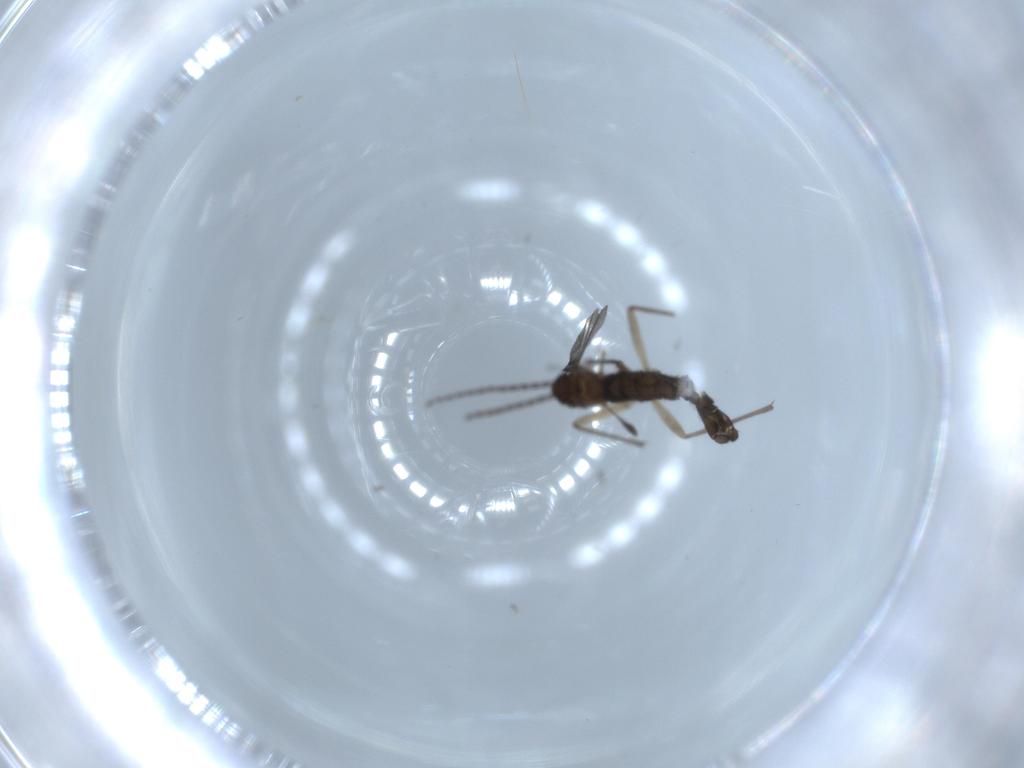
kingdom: Animalia
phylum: Arthropoda
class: Insecta
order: Diptera
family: Sciaridae
